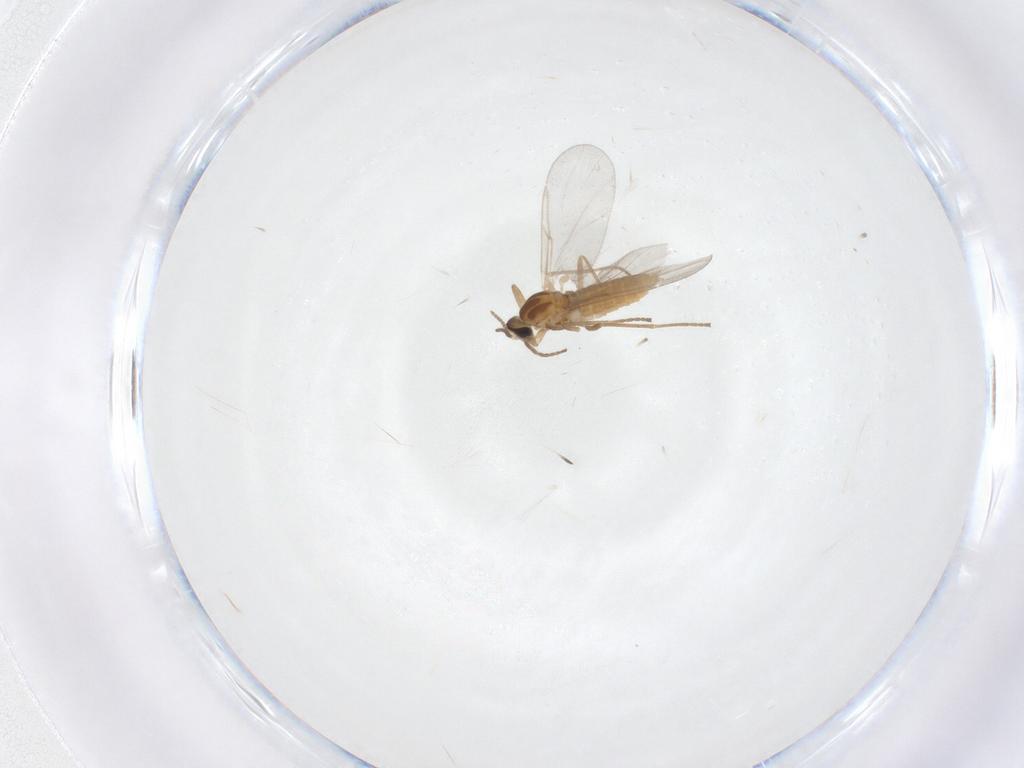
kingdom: Animalia
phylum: Arthropoda
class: Insecta
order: Diptera
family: Cecidomyiidae
